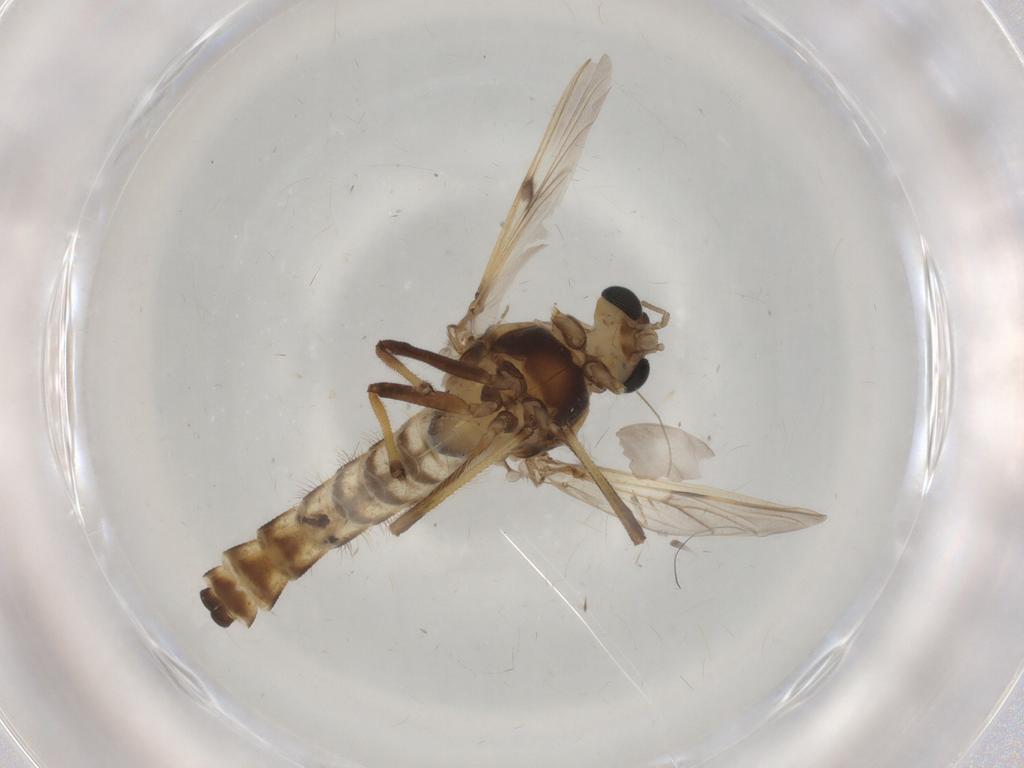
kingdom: Animalia
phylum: Arthropoda
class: Insecta
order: Diptera
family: Chironomidae
